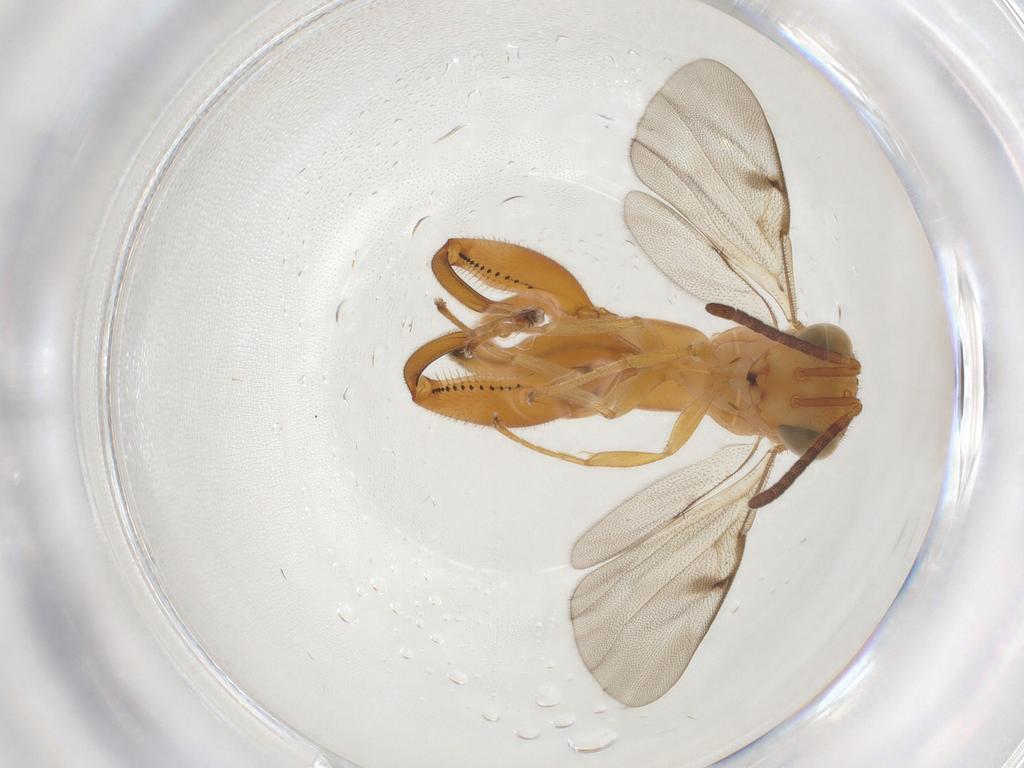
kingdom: Animalia
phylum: Arthropoda
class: Insecta
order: Hymenoptera
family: Chalcididae
